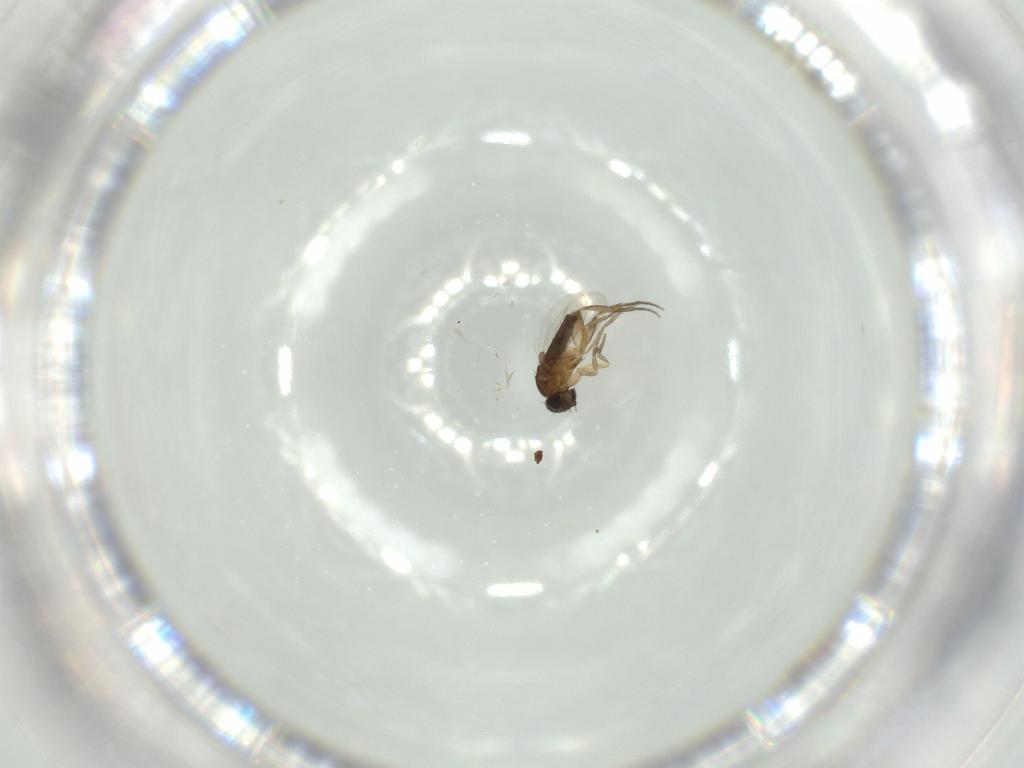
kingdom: Animalia
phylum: Arthropoda
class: Insecta
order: Diptera
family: Phoridae
